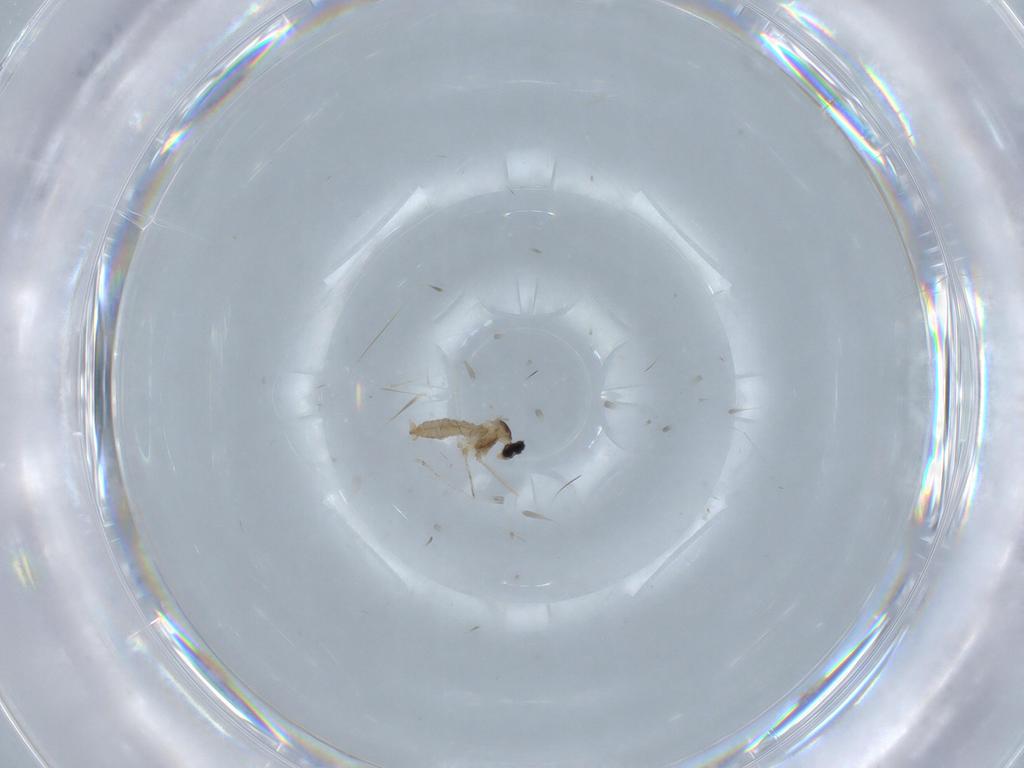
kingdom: Animalia
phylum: Arthropoda
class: Insecta
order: Diptera
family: Cecidomyiidae
